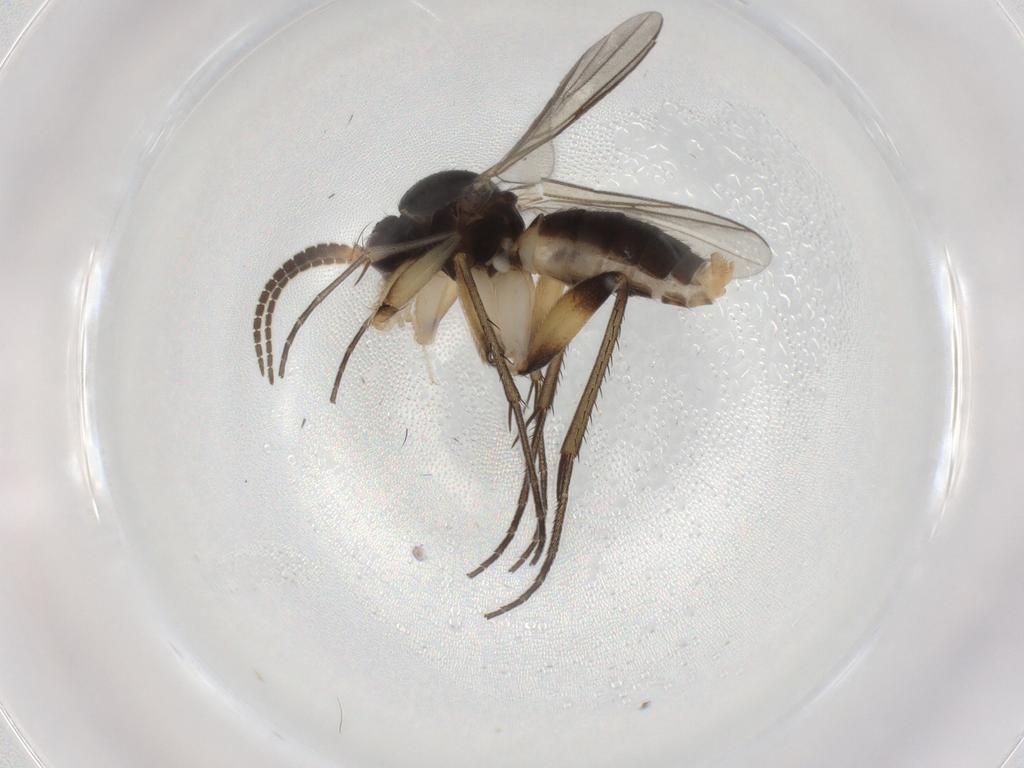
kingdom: Animalia
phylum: Arthropoda
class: Insecta
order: Diptera
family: Mycetophilidae
